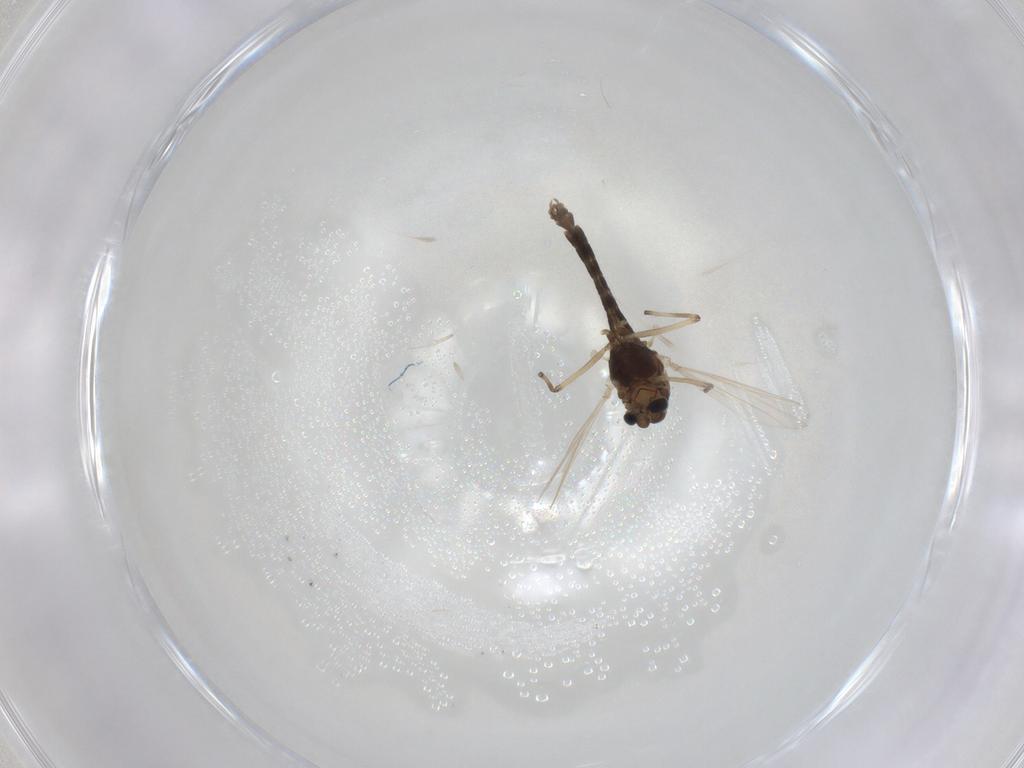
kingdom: Animalia
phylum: Arthropoda
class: Insecta
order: Diptera
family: Chironomidae
